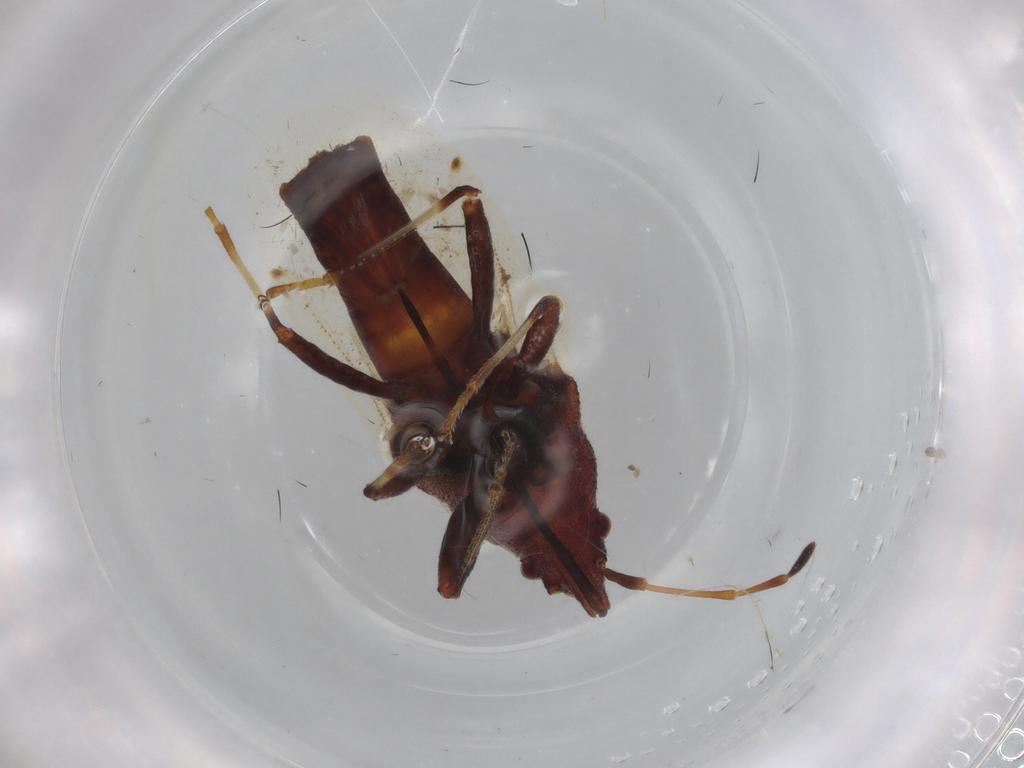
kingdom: Animalia
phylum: Arthropoda
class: Insecta
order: Hemiptera
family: Oxycarenidae
